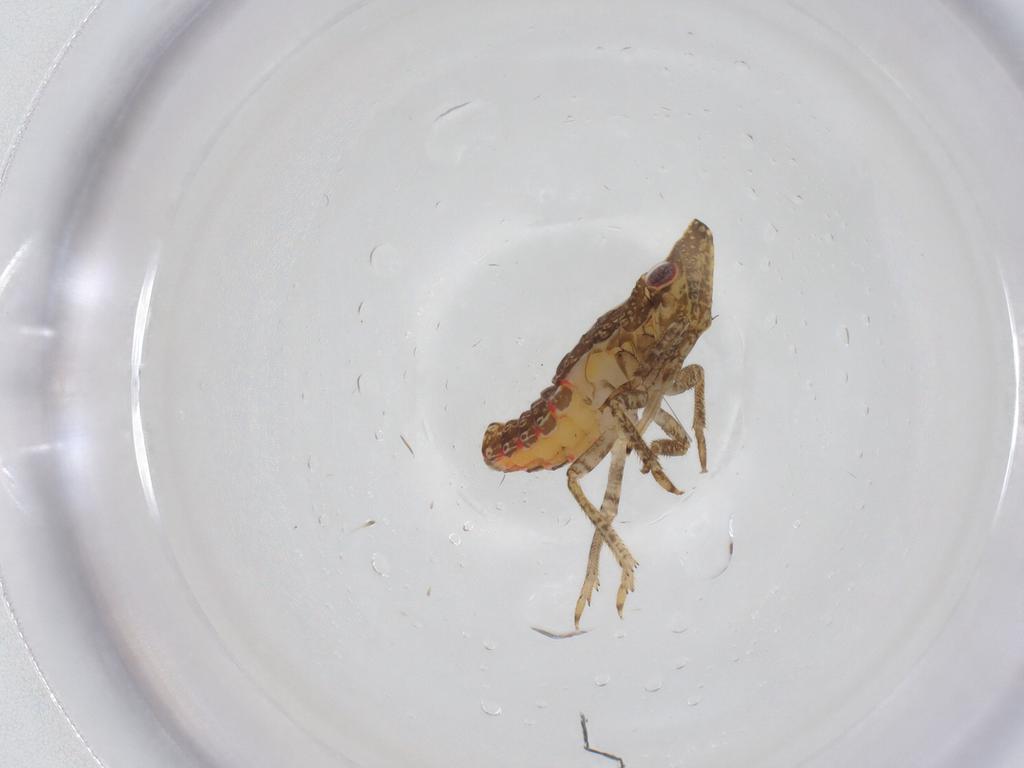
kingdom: Animalia
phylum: Arthropoda
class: Insecta
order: Hemiptera
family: Fulgoroidea_incertae_sedis
